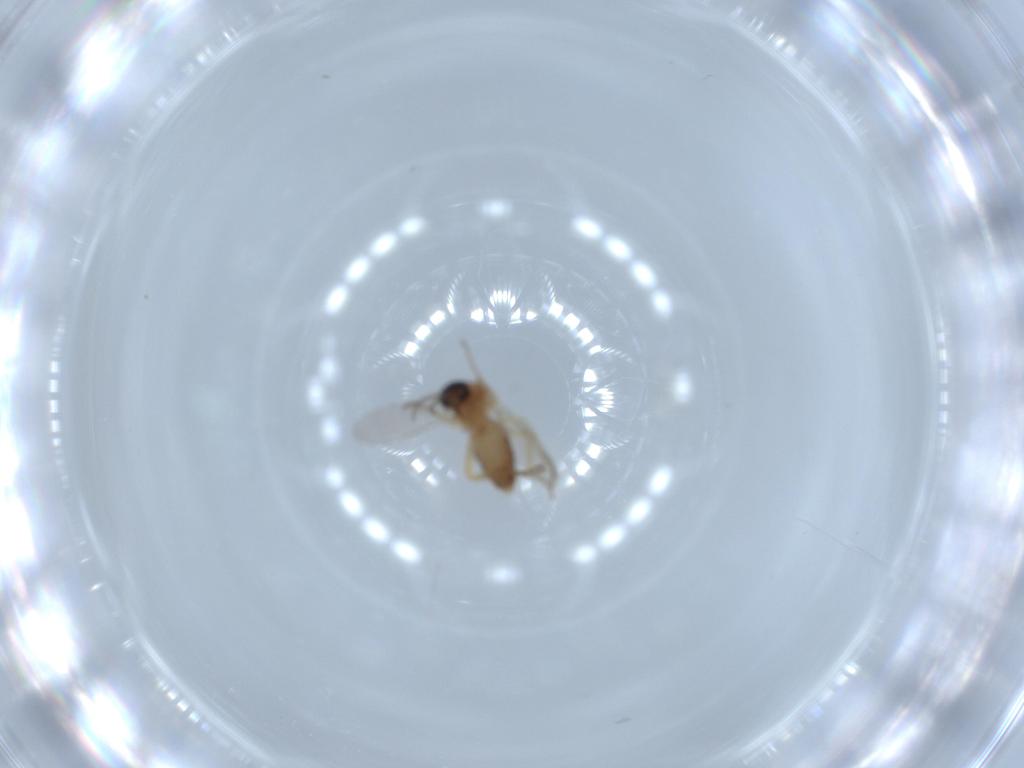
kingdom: Animalia
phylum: Arthropoda
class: Insecta
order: Diptera
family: Ceratopogonidae
